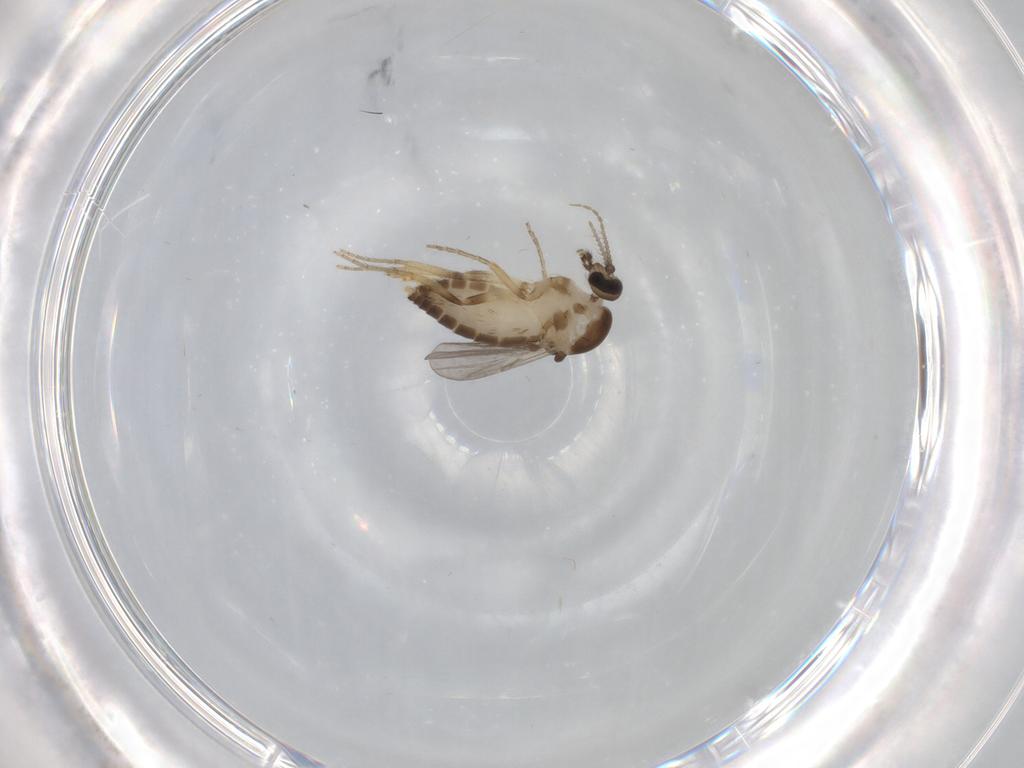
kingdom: Animalia
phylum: Arthropoda
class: Insecta
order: Diptera
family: Ceratopogonidae
